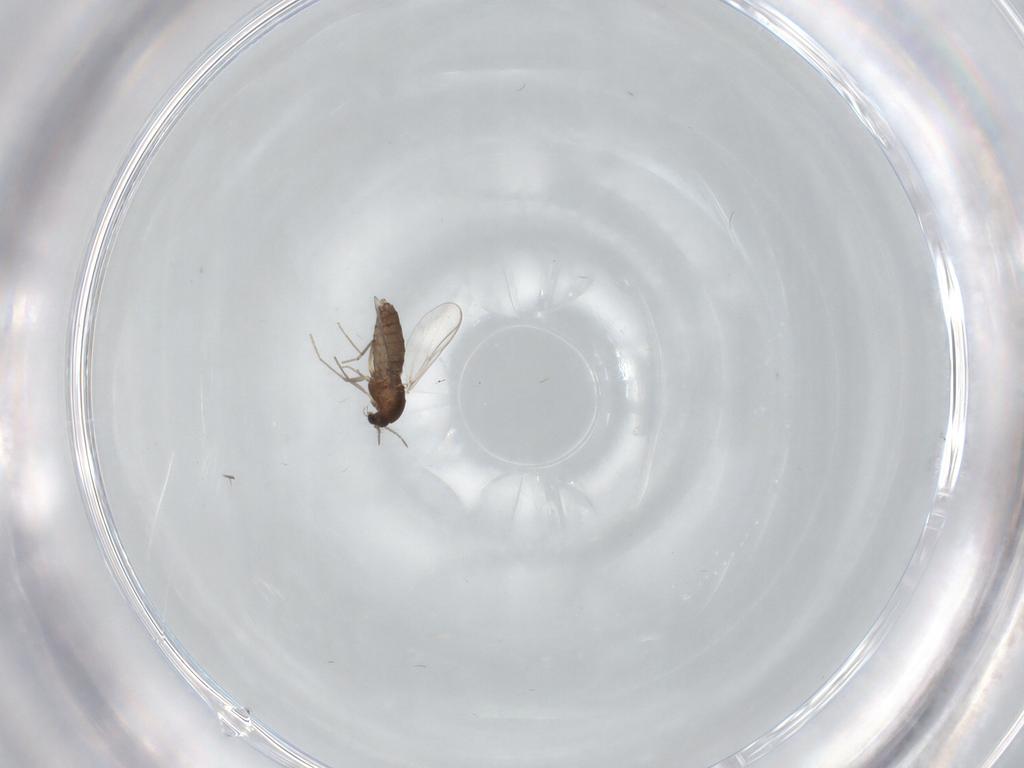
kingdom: Animalia
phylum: Arthropoda
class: Insecta
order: Diptera
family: Chironomidae
